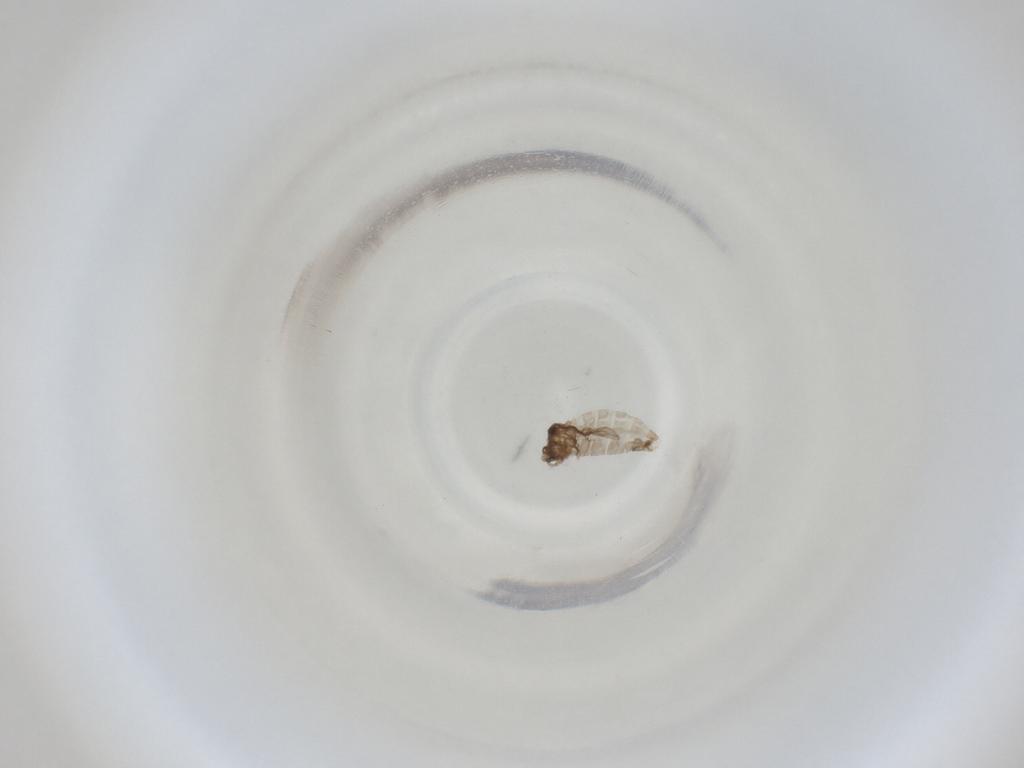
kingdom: Animalia
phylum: Arthropoda
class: Insecta
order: Diptera
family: Cecidomyiidae
